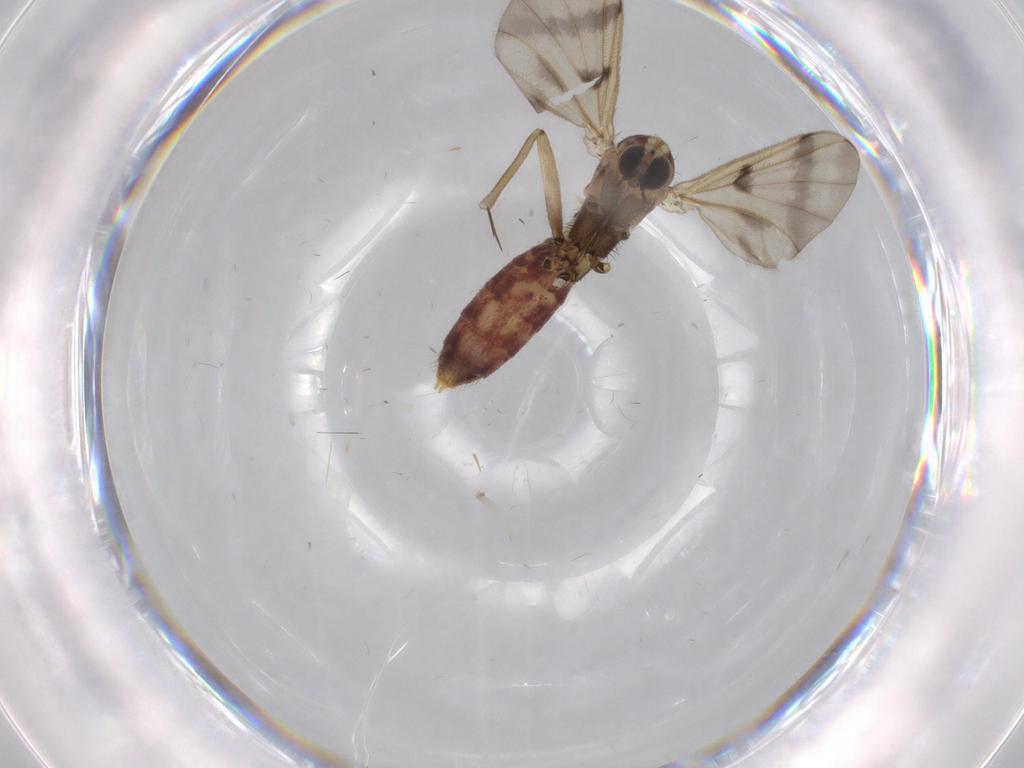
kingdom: Animalia
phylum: Arthropoda
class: Insecta
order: Diptera
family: Cecidomyiidae
